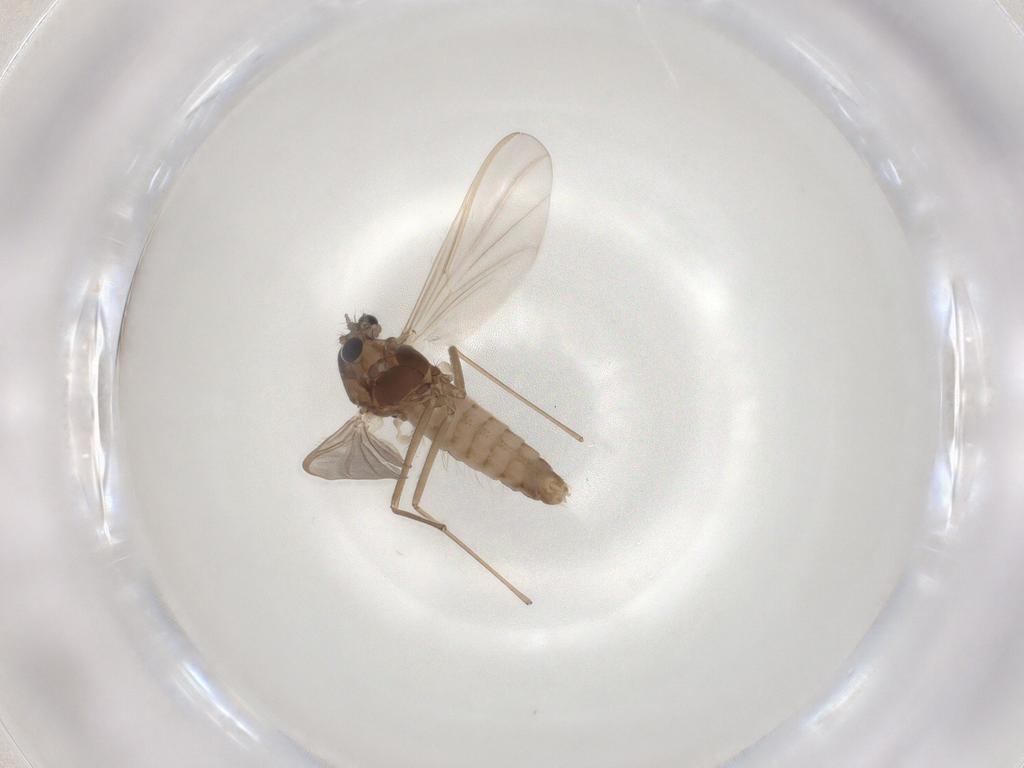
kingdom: Animalia
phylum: Arthropoda
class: Insecta
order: Diptera
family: Chironomidae
